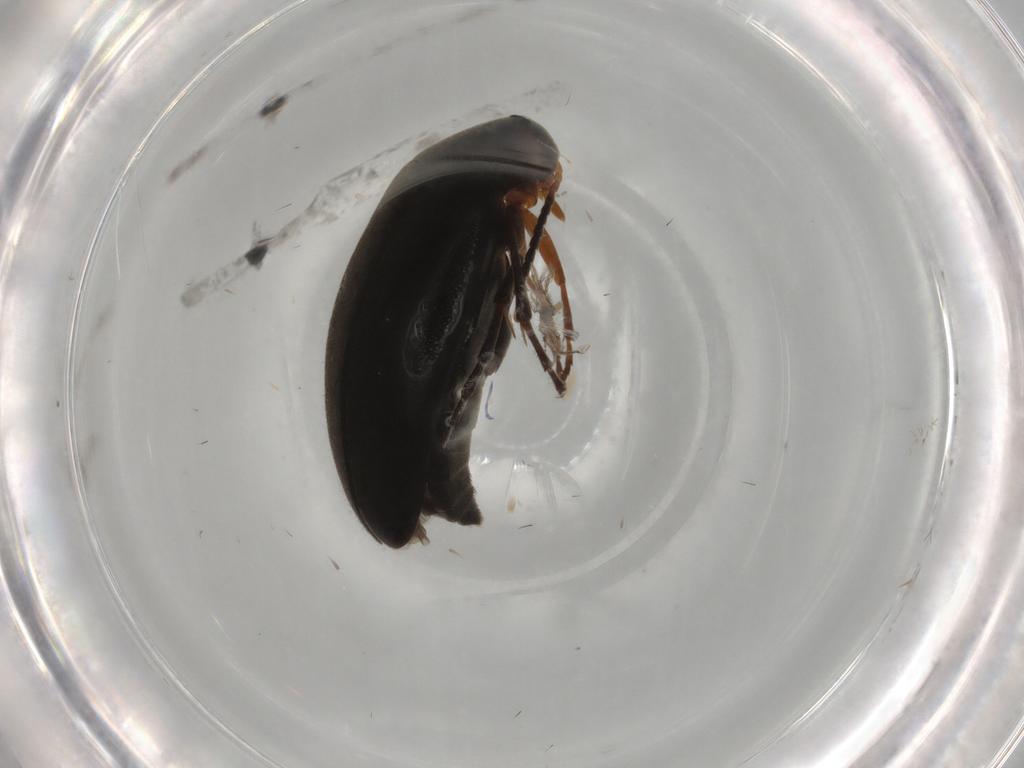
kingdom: Animalia
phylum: Arthropoda
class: Insecta
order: Coleoptera
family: Scraptiidae
